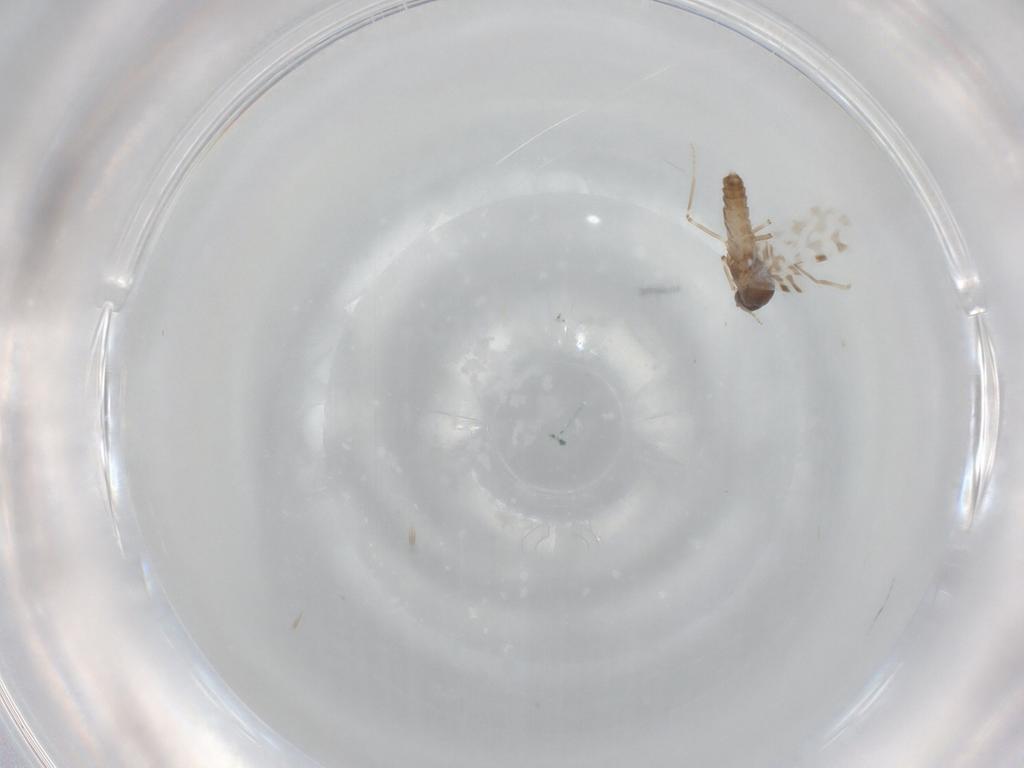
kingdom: Animalia
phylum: Arthropoda
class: Insecta
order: Diptera
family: Ceratopogonidae
